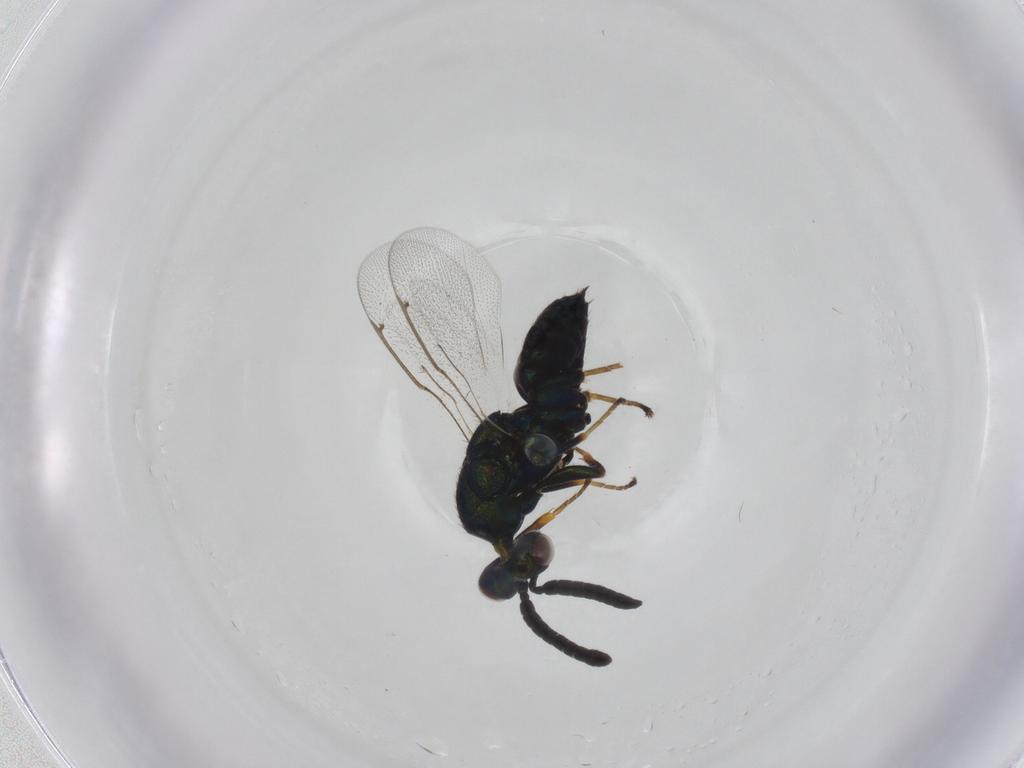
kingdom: Animalia
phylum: Arthropoda
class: Insecta
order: Hymenoptera
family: Torymidae
